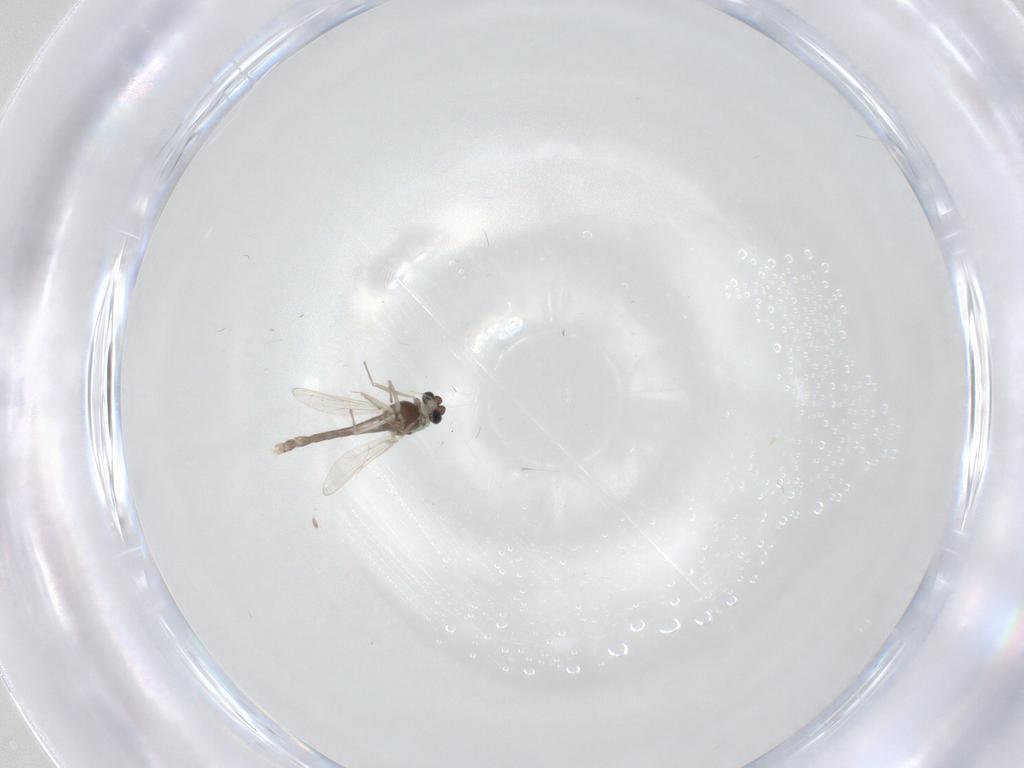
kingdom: Animalia
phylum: Arthropoda
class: Insecta
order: Diptera
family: Chironomidae
